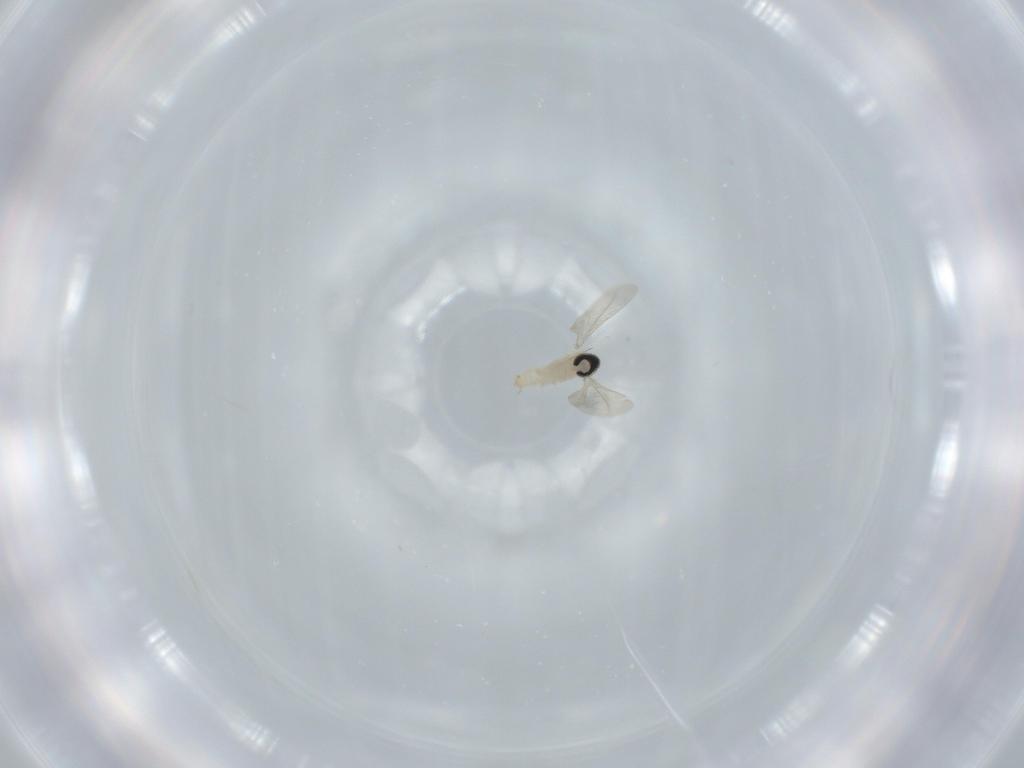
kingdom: Animalia
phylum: Arthropoda
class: Insecta
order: Diptera
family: Cecidomyiidae
